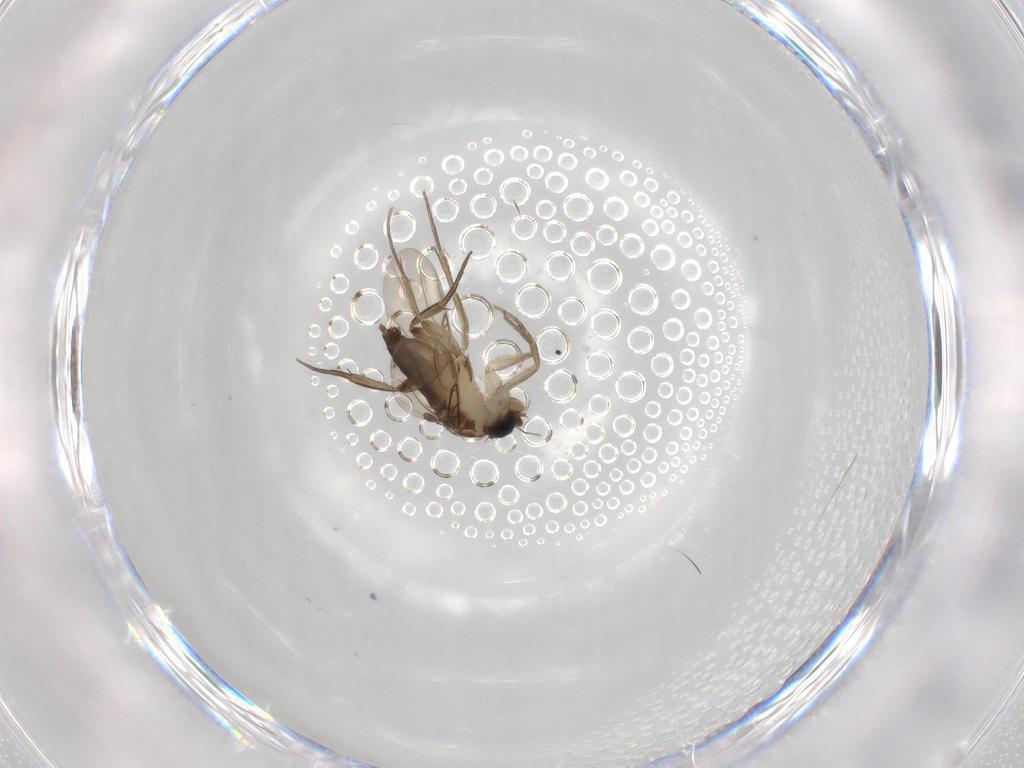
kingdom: Animalia
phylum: Arthropoda
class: Insecta
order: Diptera
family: Phoridae
